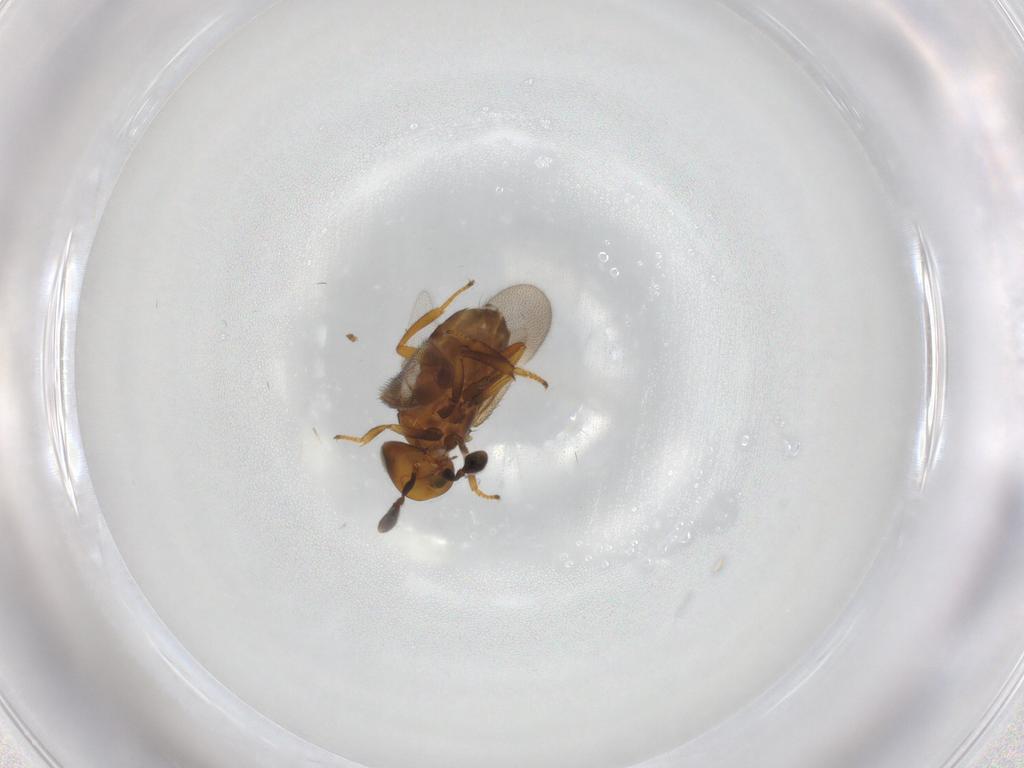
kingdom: Animalia
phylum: Arthropoda
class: Insecta
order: Hymenoptera
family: Encyrtidae
